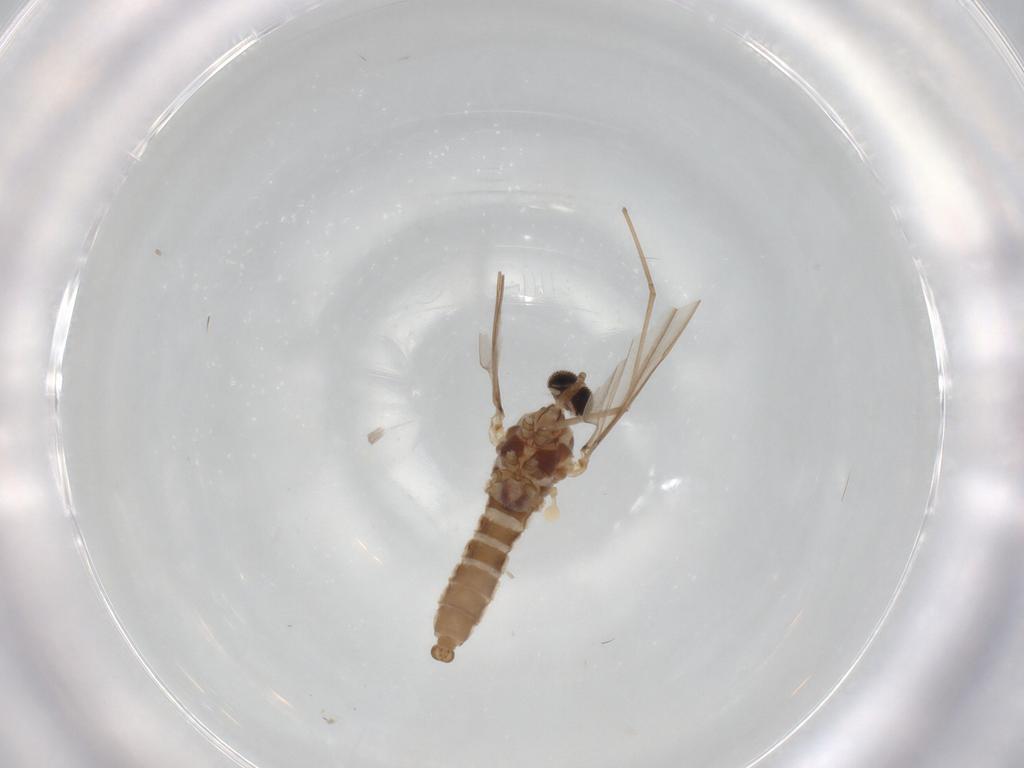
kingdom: Animalia
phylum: Arthropoda
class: Insecta
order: Diptera
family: Cecidomyiidae
